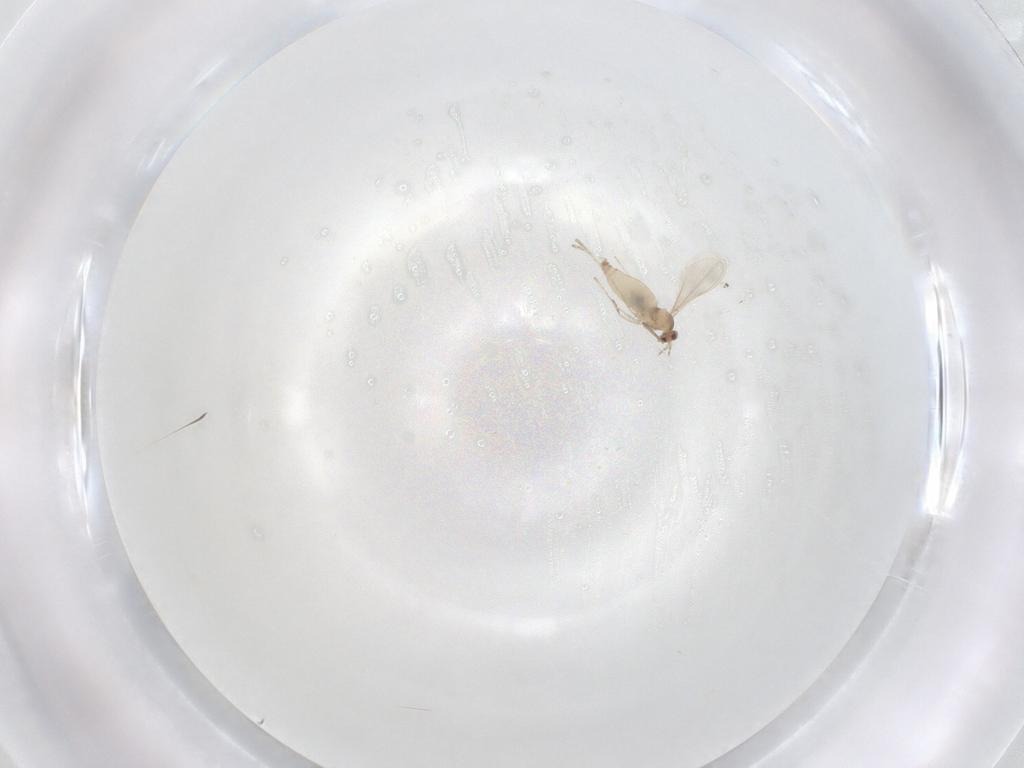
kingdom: Animalia
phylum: Arthropoda
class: Insecta
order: Diptera
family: Cecidomyiidae
